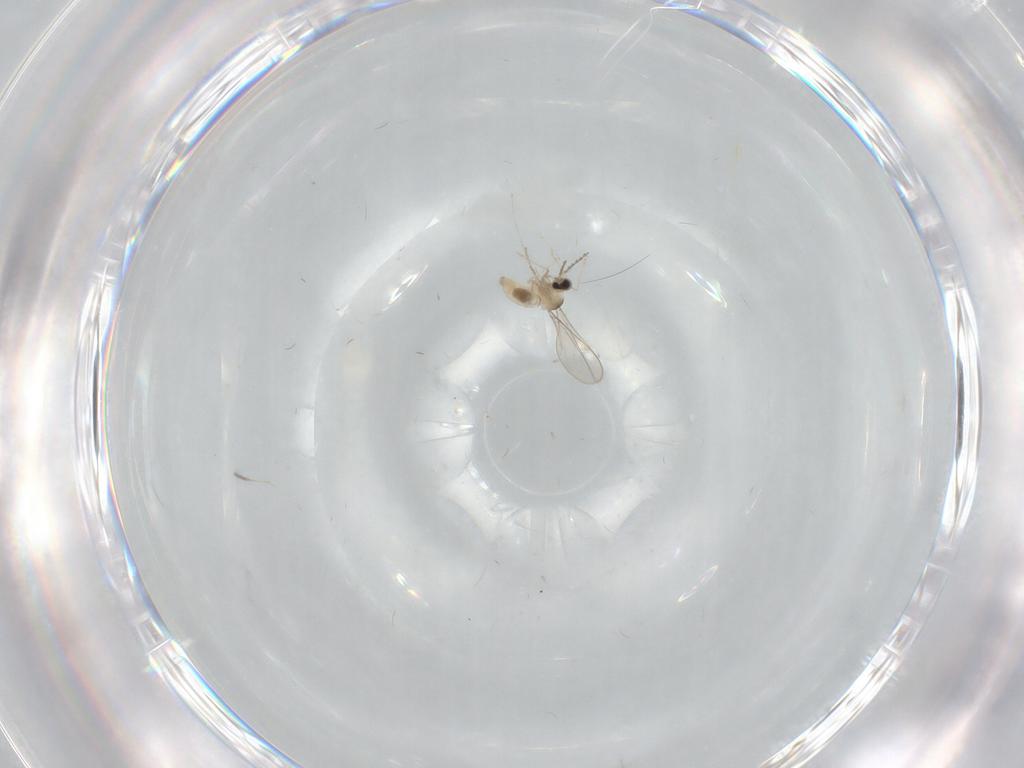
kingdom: Animalia
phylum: Arthropoda
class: Insecta
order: Diptera
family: Cecidomyiidae
